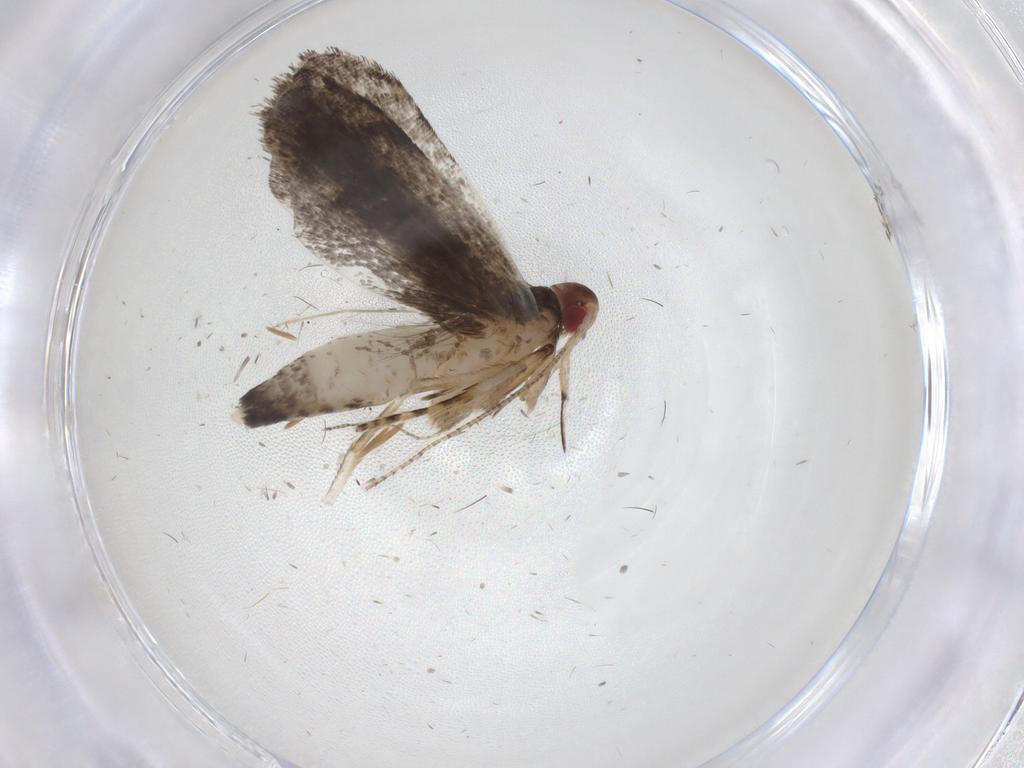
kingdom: Animalia
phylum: Arthropoda
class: Insecta
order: Lepidoptera
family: Gelechiidae
